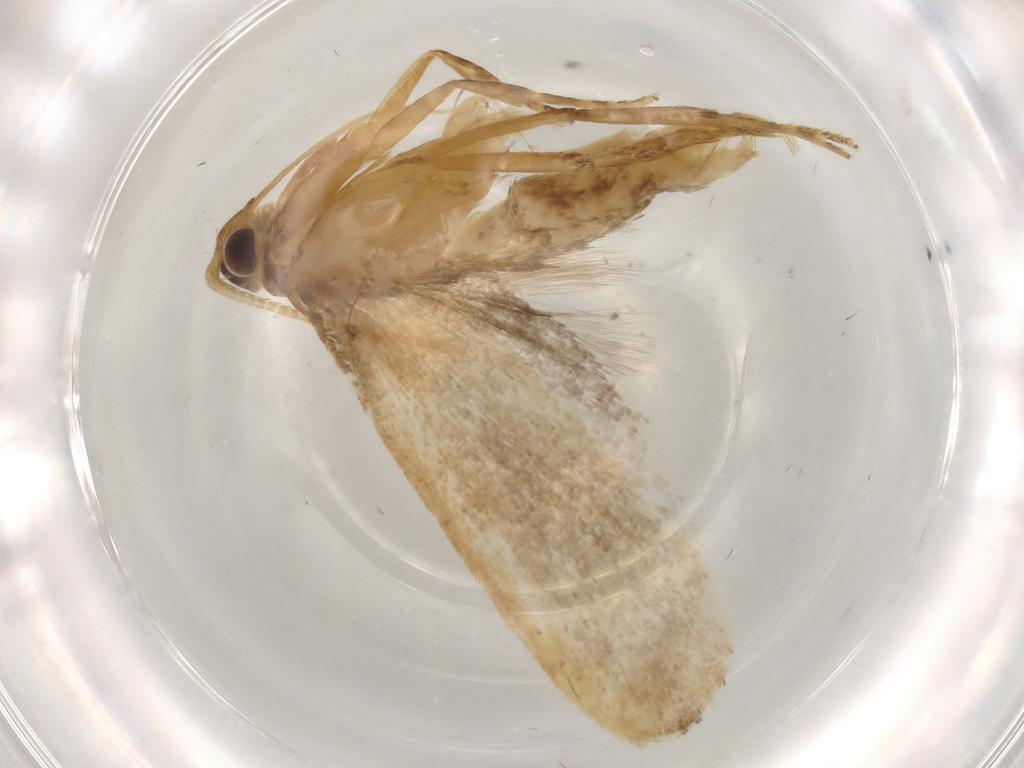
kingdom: Animalia
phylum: Arthropoda
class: Insecta
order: Lepidoptera
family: Lecithoceridae
